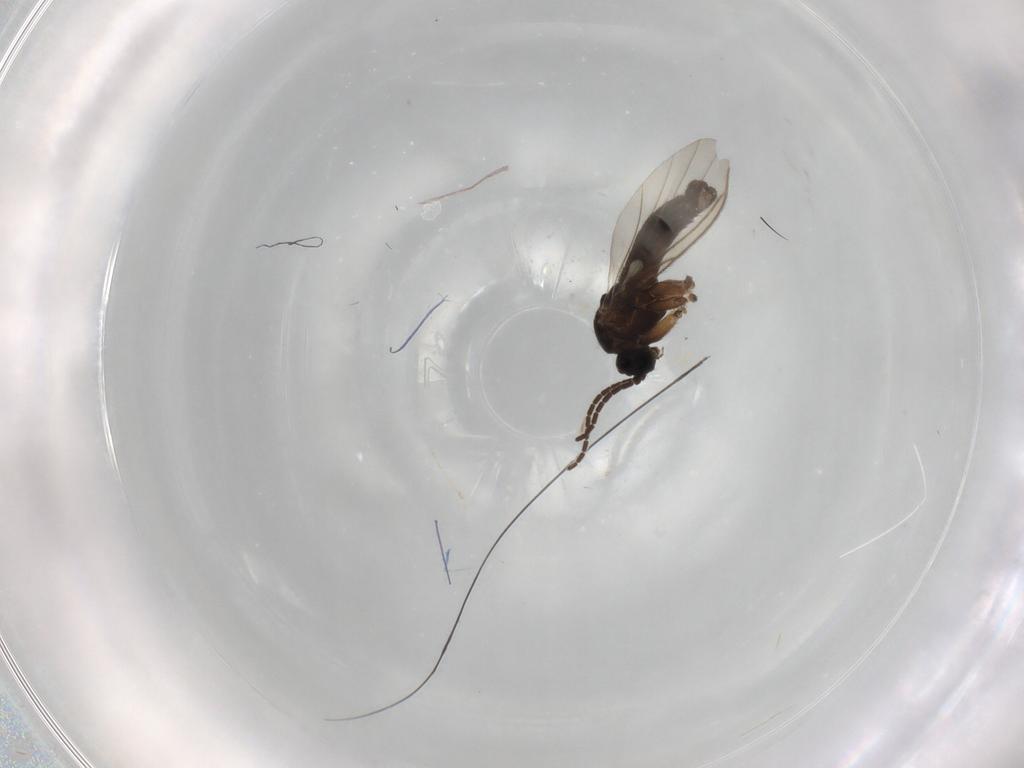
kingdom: Animalia
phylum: Arthropoda
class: Insecta
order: Diptera
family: Sciaridae
